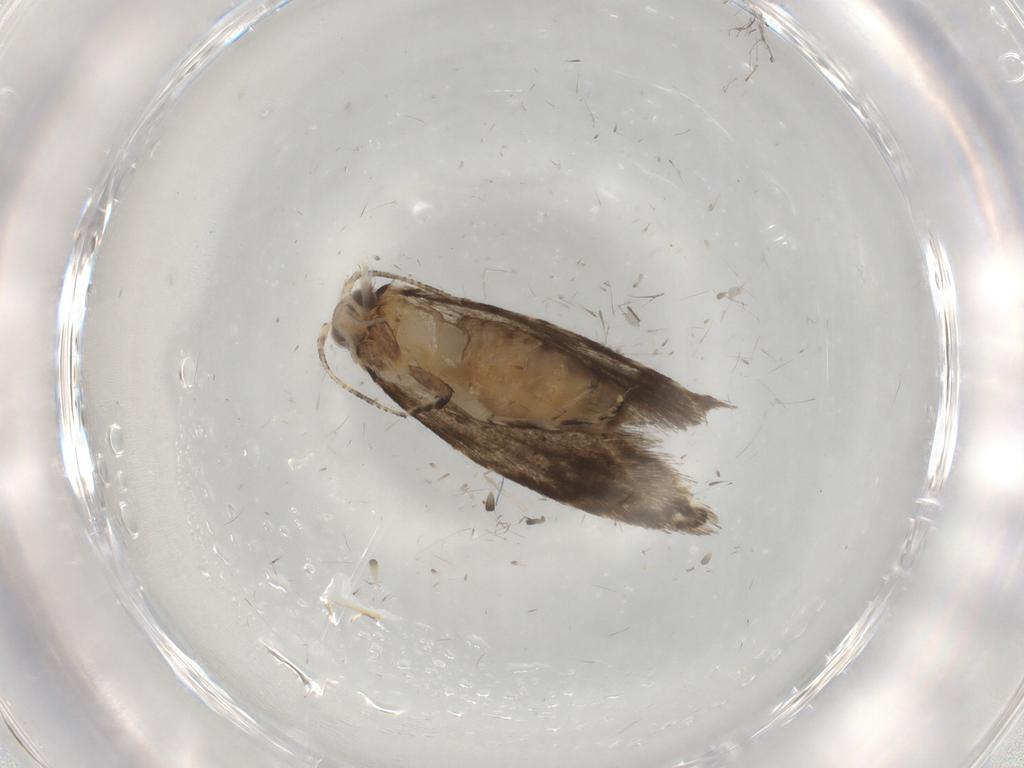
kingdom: Animalia
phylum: Arthropoda
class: Insecta
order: Lepidoptera
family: Tineidae
